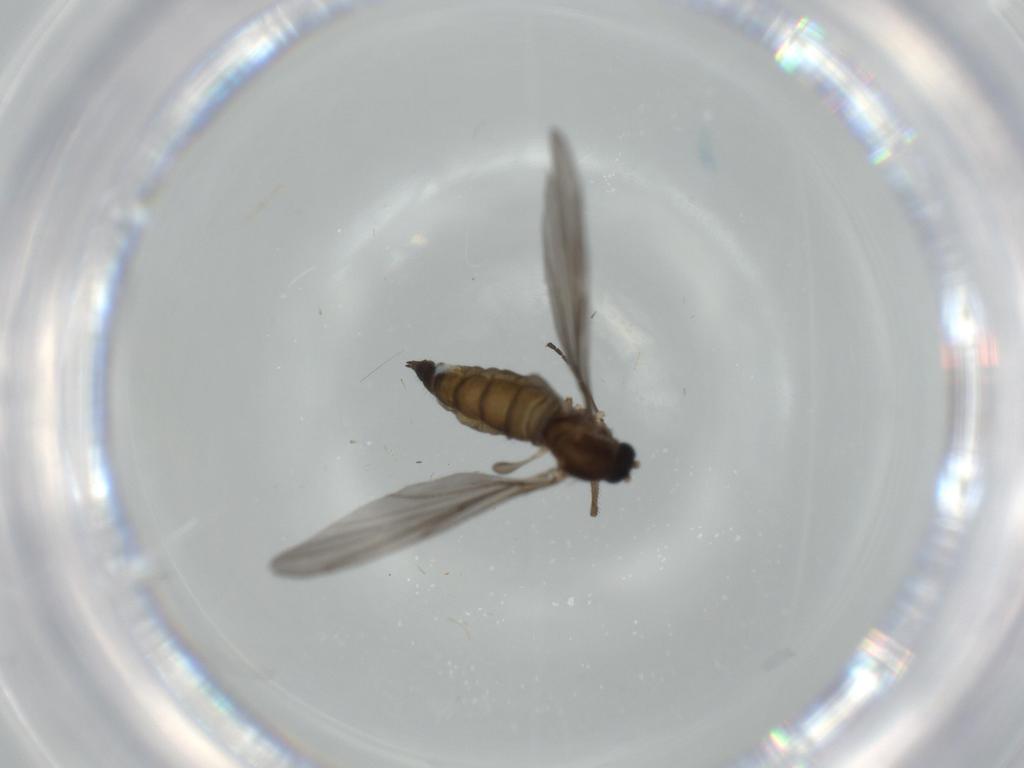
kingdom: Animalia
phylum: Arthropoda
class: Insecta
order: Diptera
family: Sciaridae
